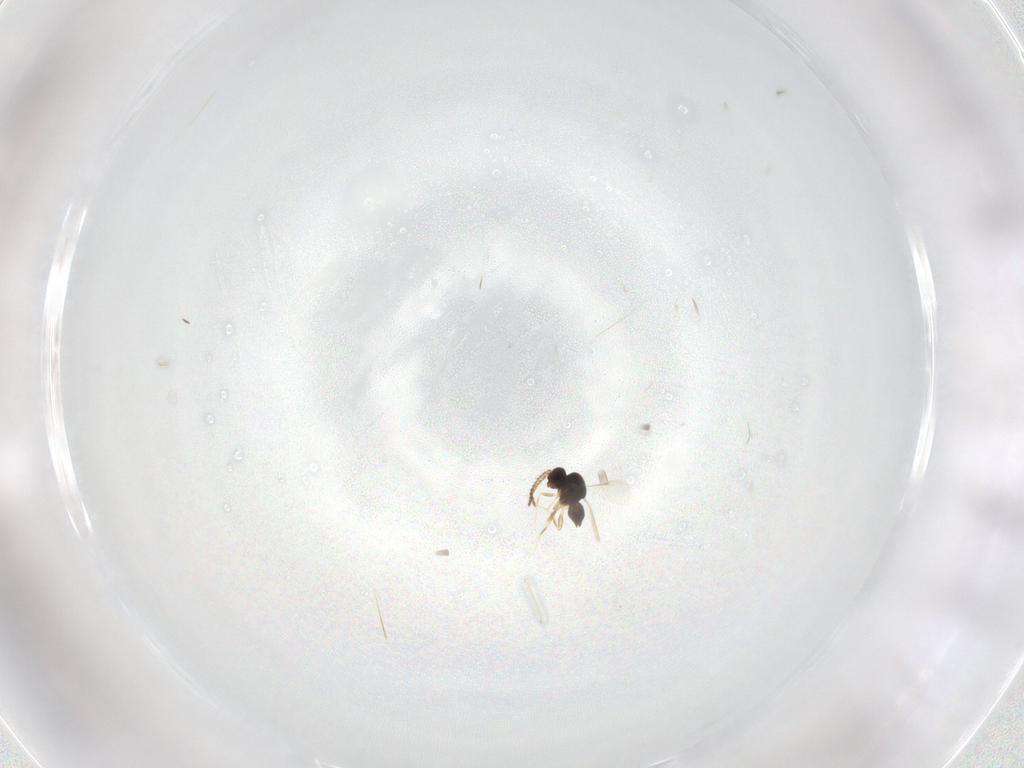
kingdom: Animalia
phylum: Arthropoda
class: Insecta
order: Hymenoptera
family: Ceraphronidae
